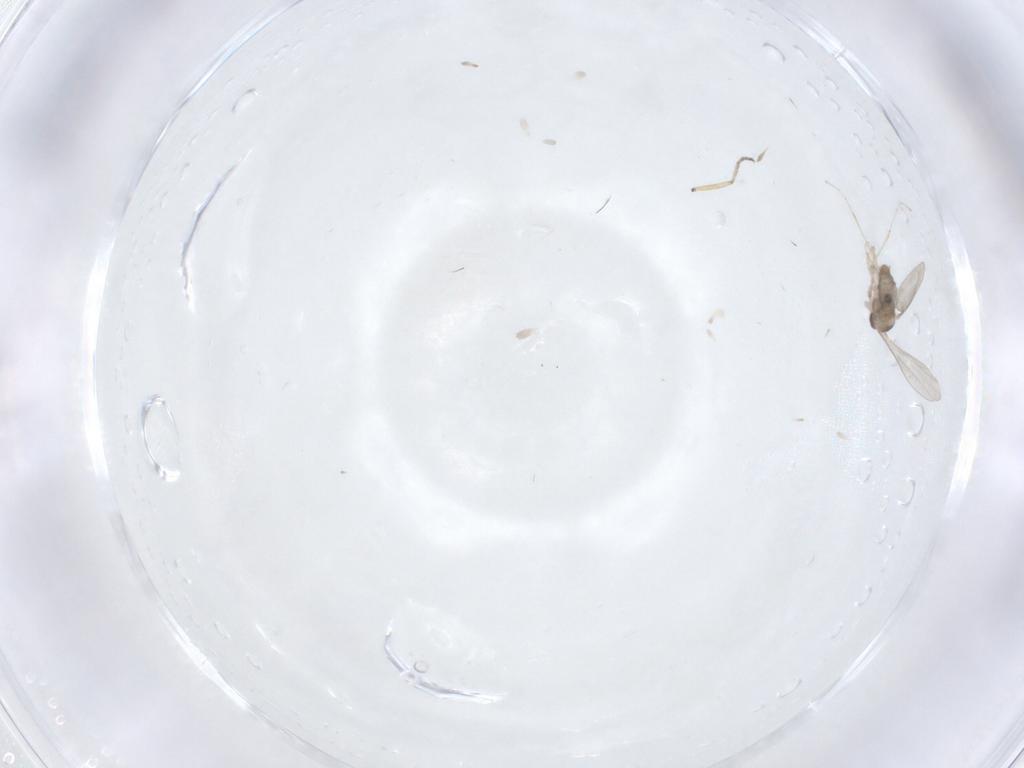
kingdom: Animalia
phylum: Arthropoda
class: Insecta
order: Diptera
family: Ceratopogonidae
